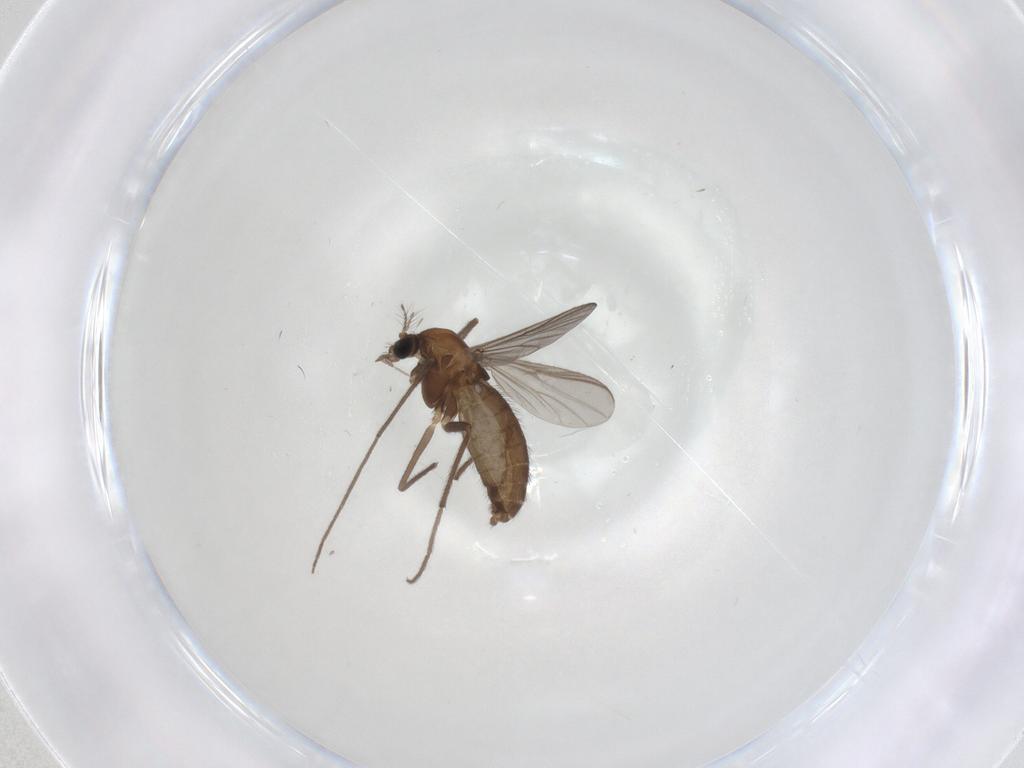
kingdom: Animalia
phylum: Arthropoda
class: Insecta
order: Diptera
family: Chironomidae
